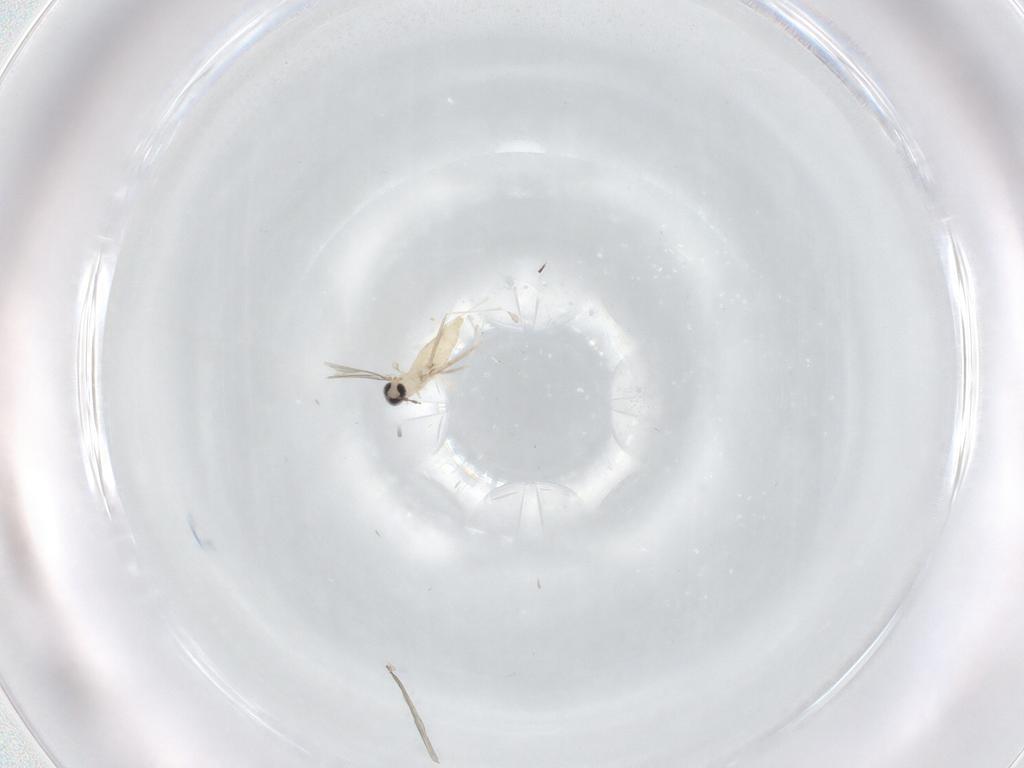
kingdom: Animalia
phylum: Arthropoda
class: Insecta
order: Diptera
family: Cecidomyiidae
